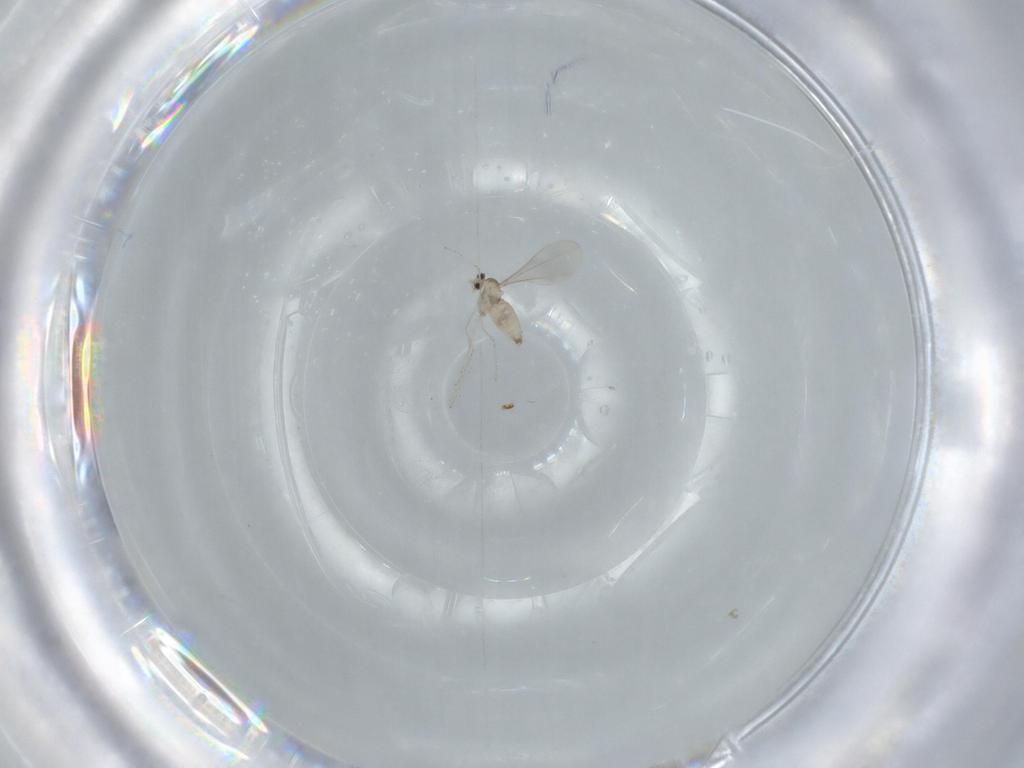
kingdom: Animalia
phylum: Arthropoda
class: Insecta
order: Diptera
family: Cecidomyiidae
